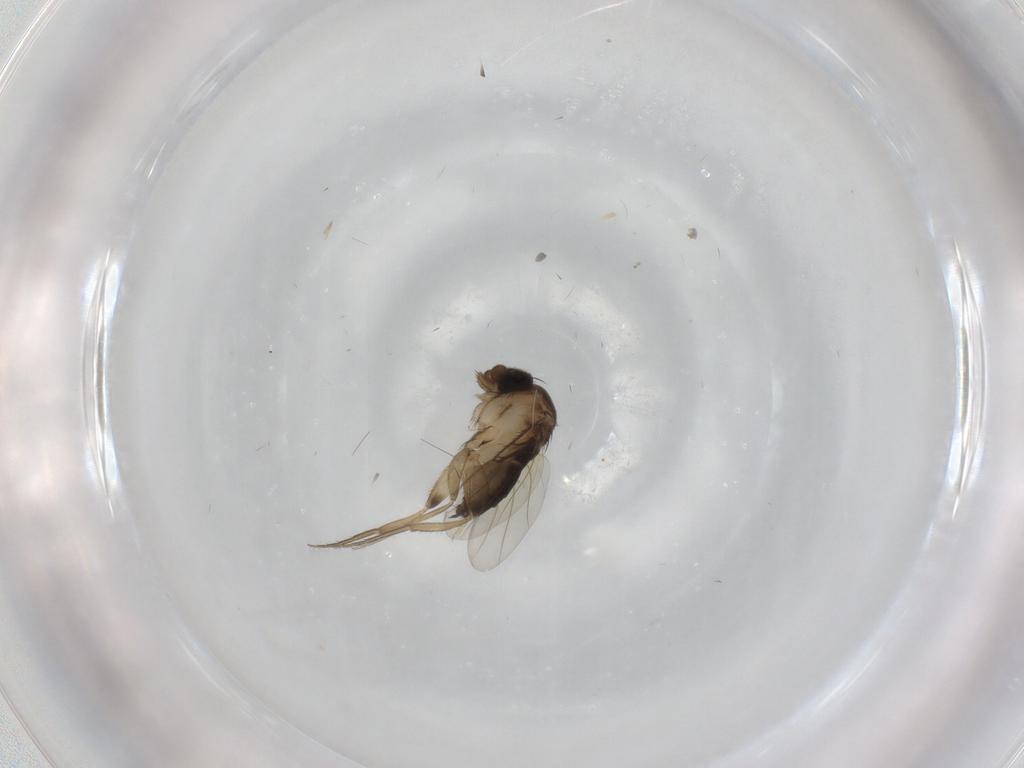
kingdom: Animalia
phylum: Arthropoda
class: Insecta
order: Diptera
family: Phoridae
